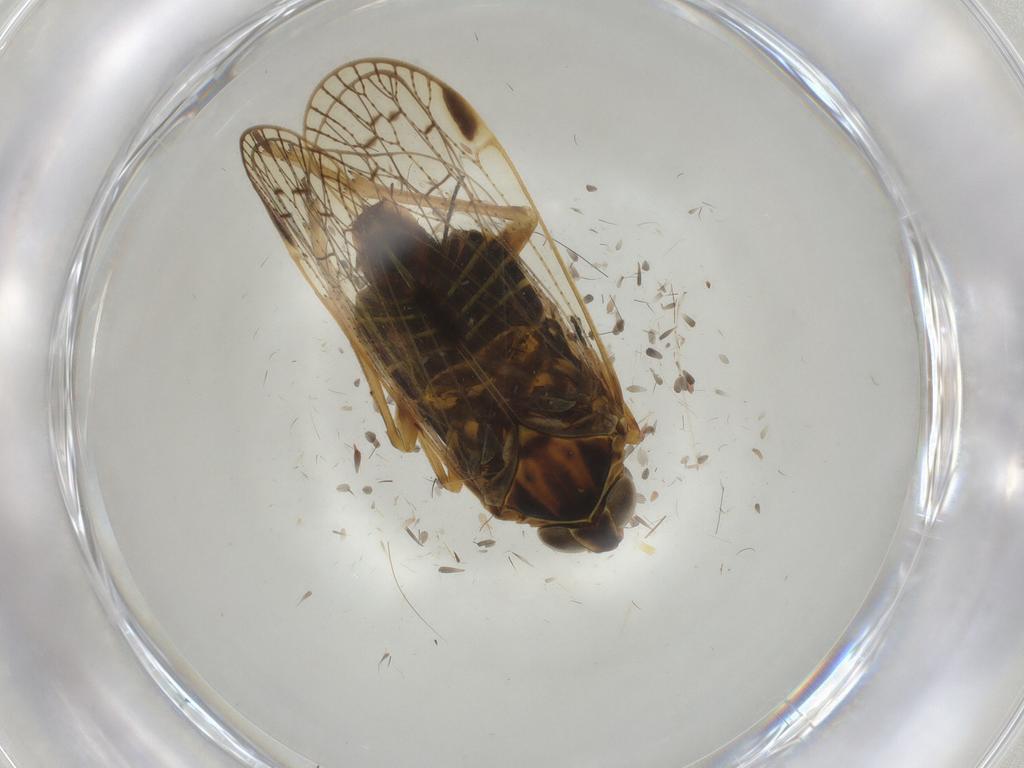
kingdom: Animalia
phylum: Arthropoda
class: Insecta
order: Hemiptera
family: Cixiidae
